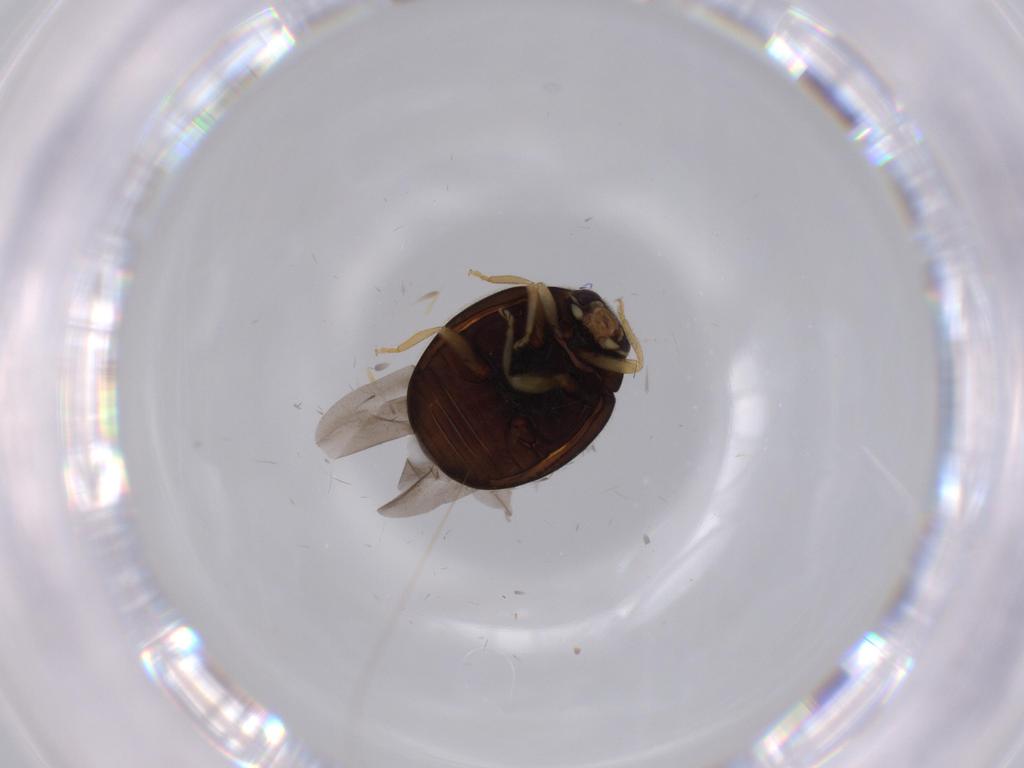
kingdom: Animalia
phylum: Arthropoda
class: Insecta
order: Coleoptera
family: Coccinellidae
